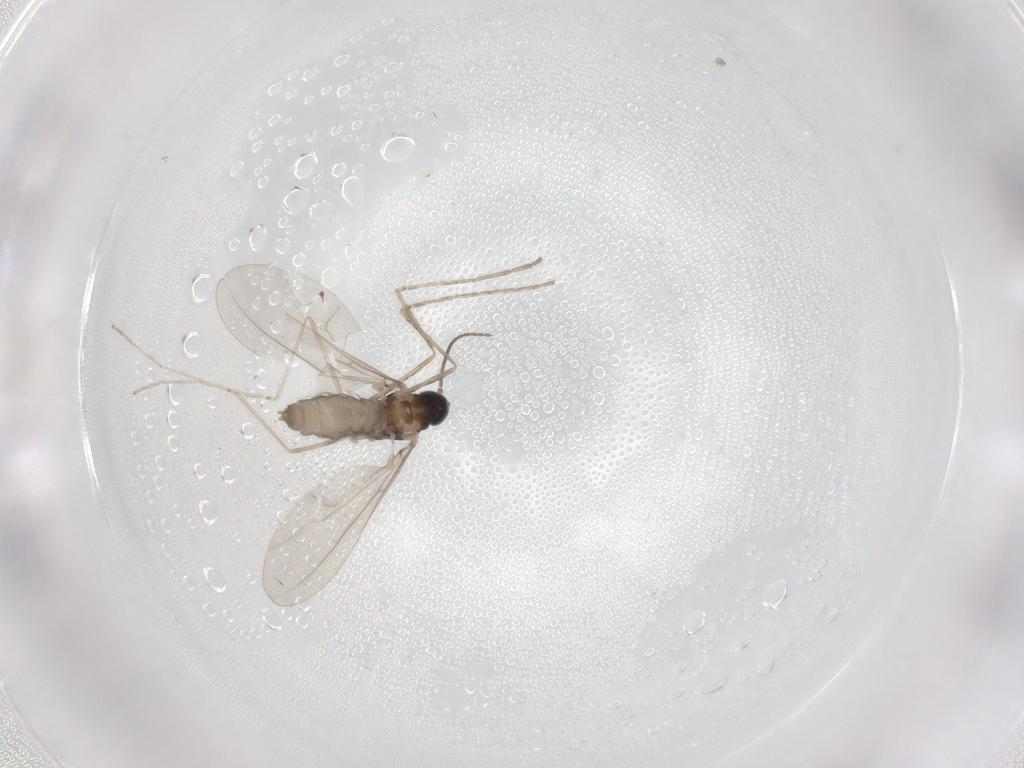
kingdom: Animalia
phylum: Arthropoda
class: Insecta
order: Diptera
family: Cecidomyiidae
